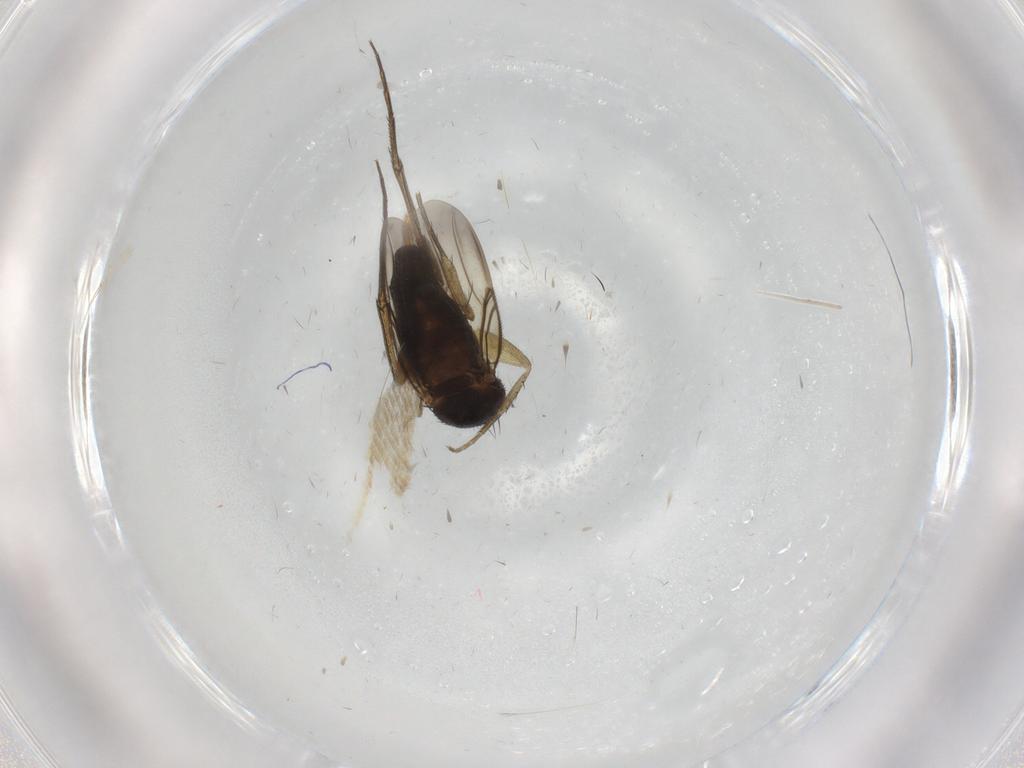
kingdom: Animalia
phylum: Arthropoda
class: Insecta
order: Diptera
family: Phoridae
